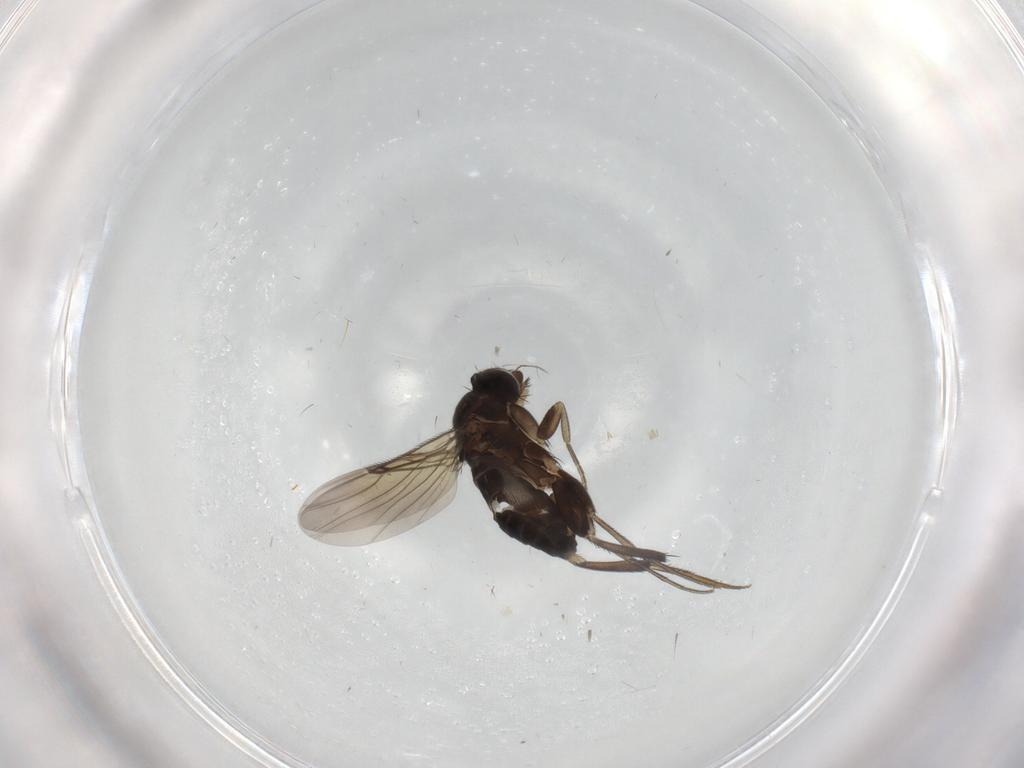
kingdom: Animalia
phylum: Arthropoda
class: Insecta
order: Diptera
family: Phoridae
